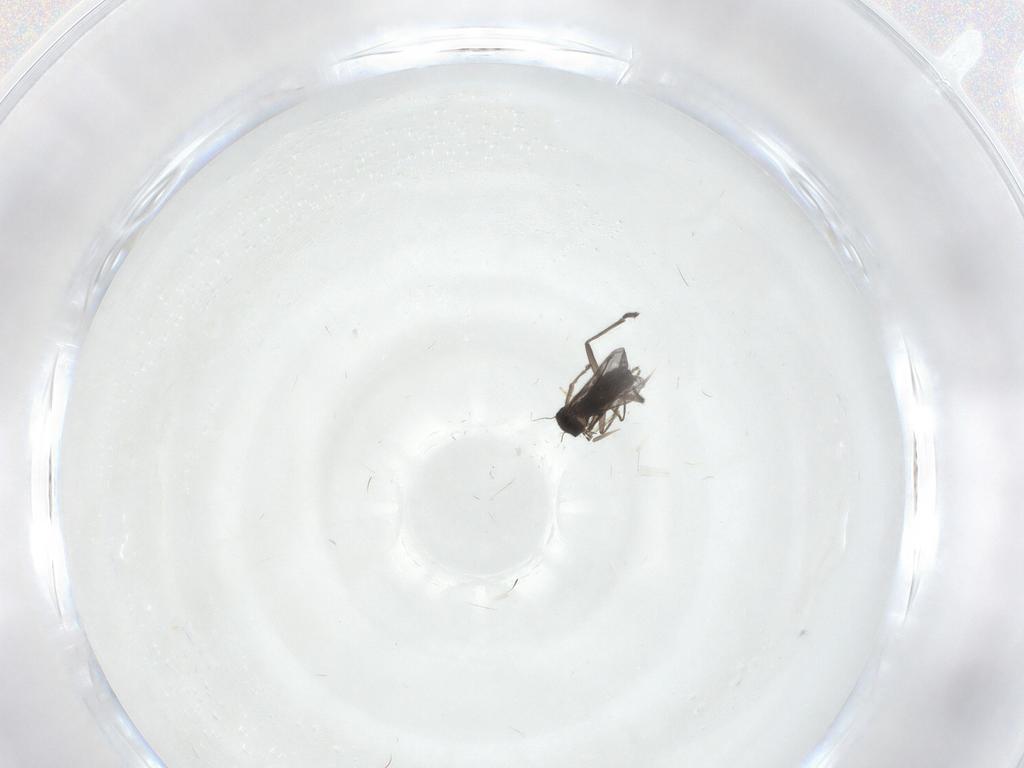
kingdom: Animalia
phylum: Arthropoda
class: Insecta
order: Diptera
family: Phoridae
